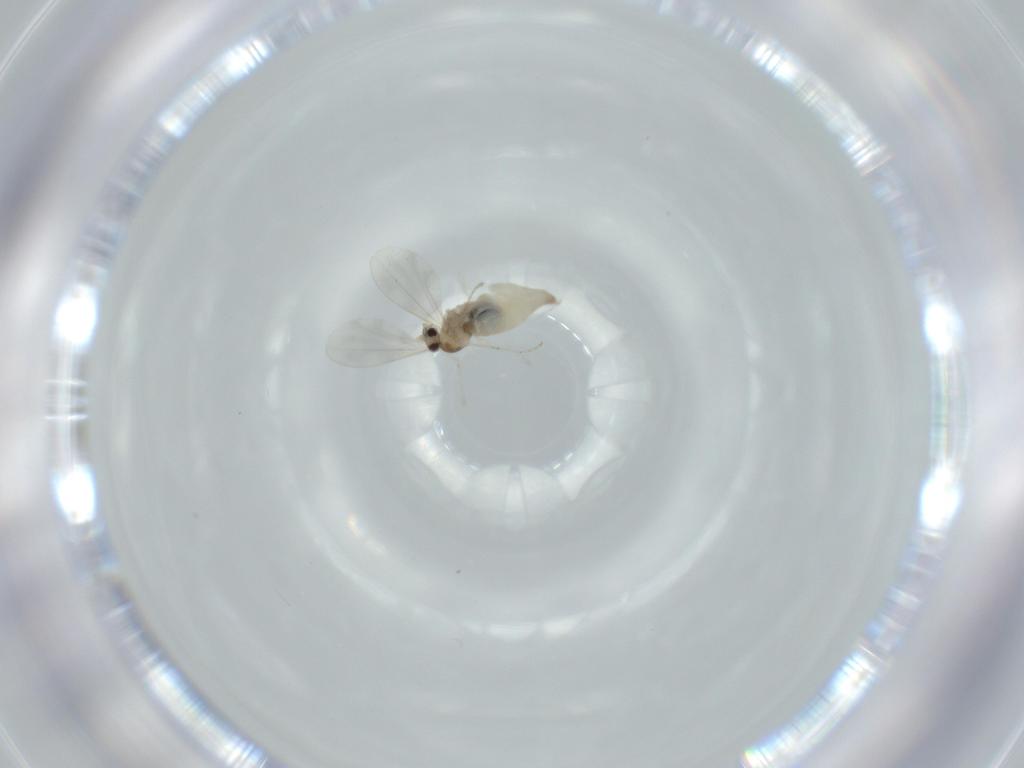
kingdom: Animalia
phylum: Arthropoda
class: Insecta
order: Diptera
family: Cecidomyiidae
